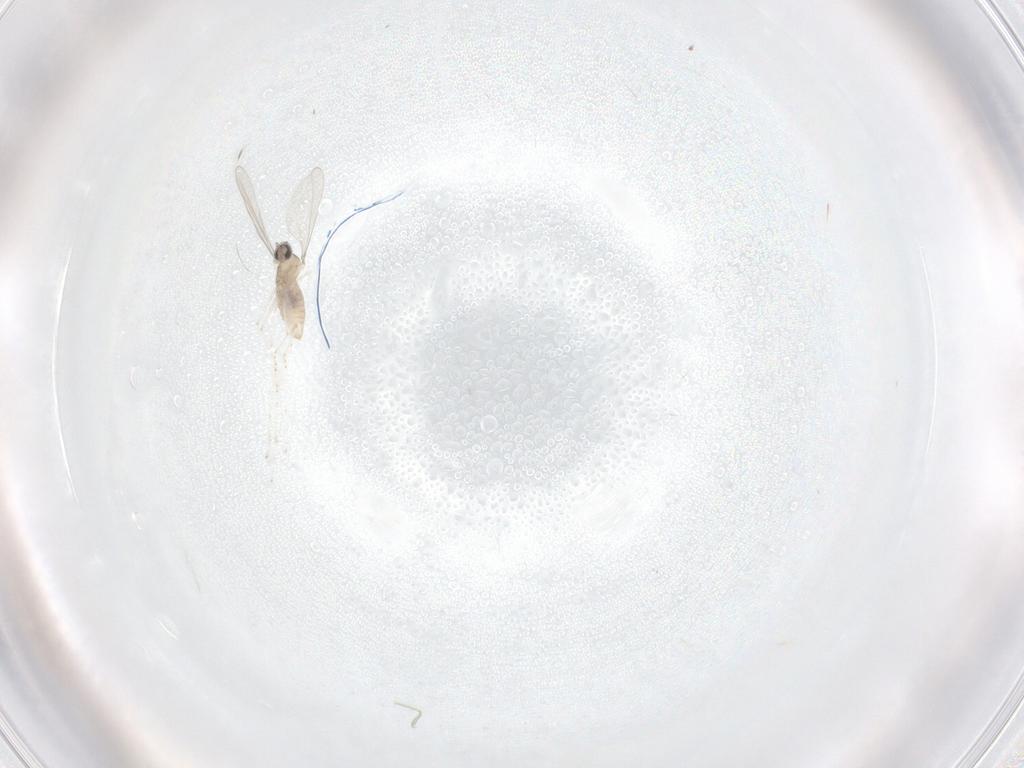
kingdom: Animalia
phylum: Arthropoda
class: Insecta
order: Diptera
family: Cecidomyiidae
